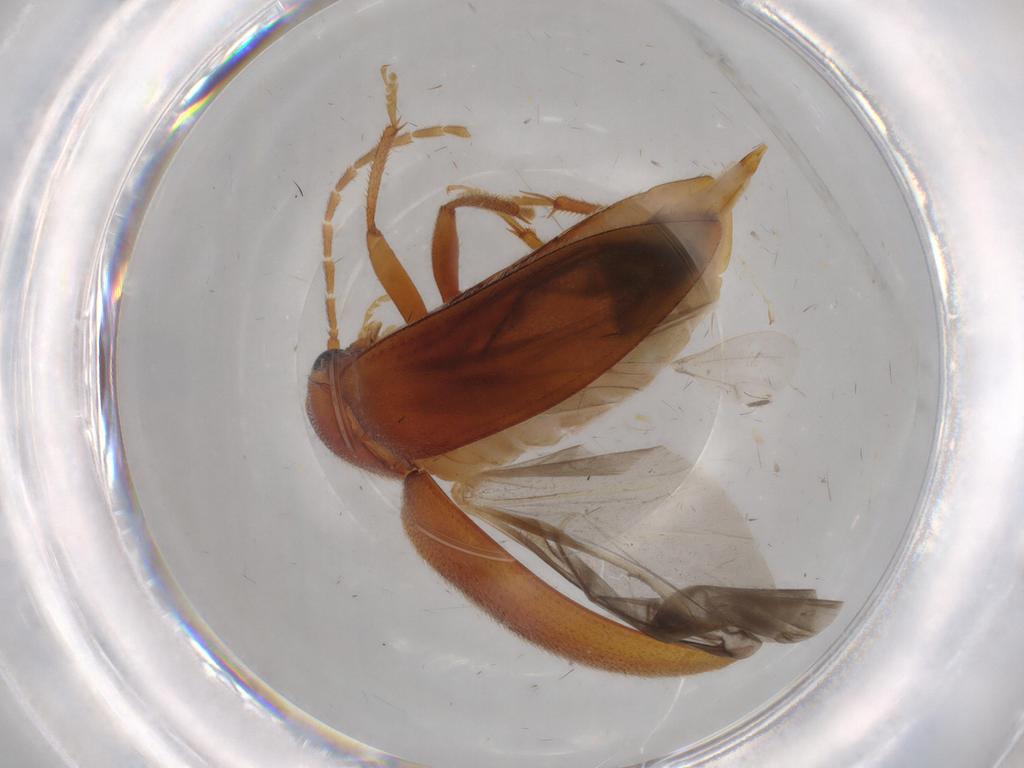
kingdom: Animalia
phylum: Arthropoda
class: Insecta
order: Coleoptera
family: Ptilodactylidae
